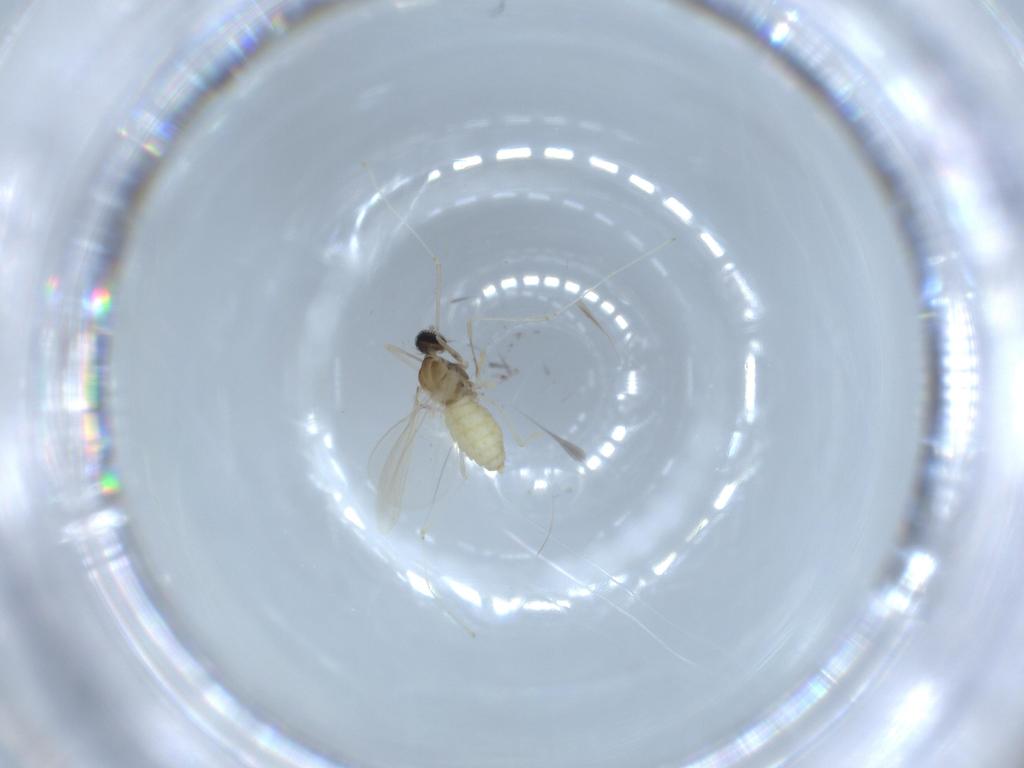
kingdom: Animalia
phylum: Arthropoda
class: Insecta
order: Diptera
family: Cecidomyiidae
